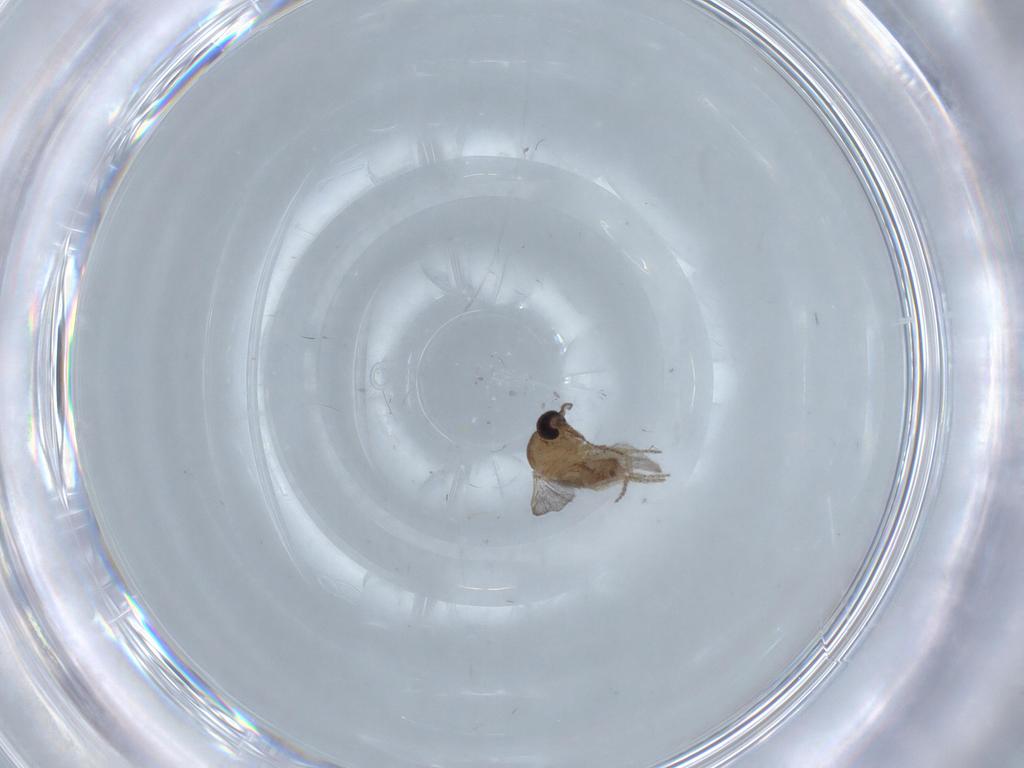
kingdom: Animalia
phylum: Arthropoda
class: Insecta
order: Diptera
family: Ceratopogonidae
